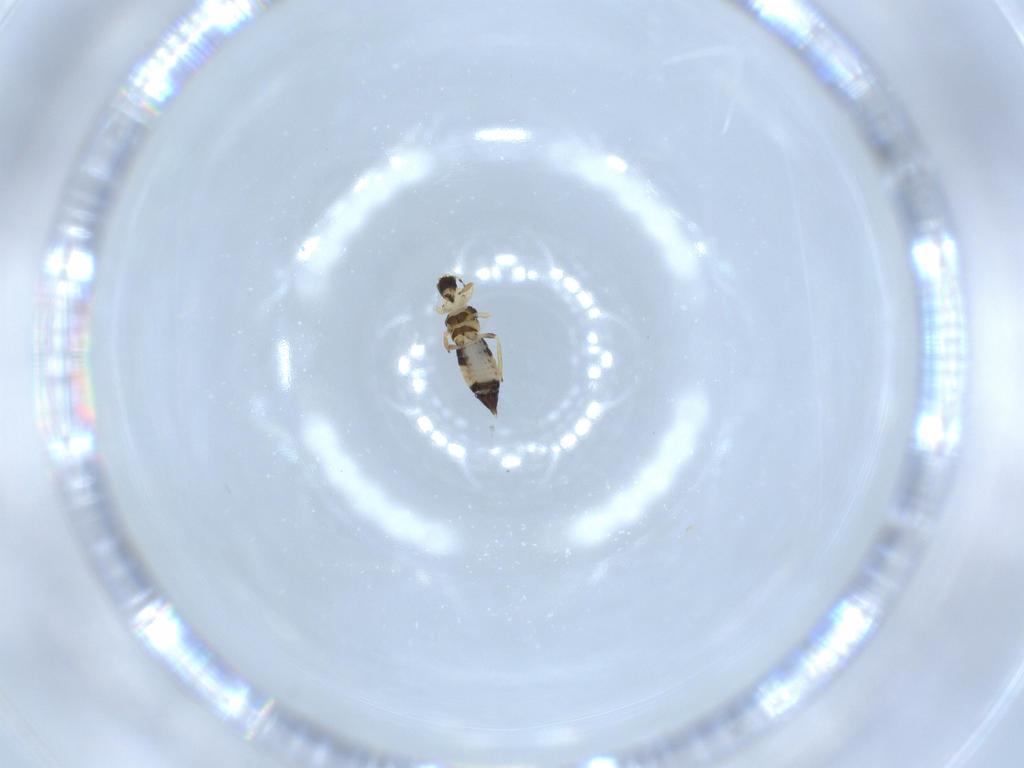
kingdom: Animalia
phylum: Arthropoda
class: Insecta
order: Thysanoptera
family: Thripidae
